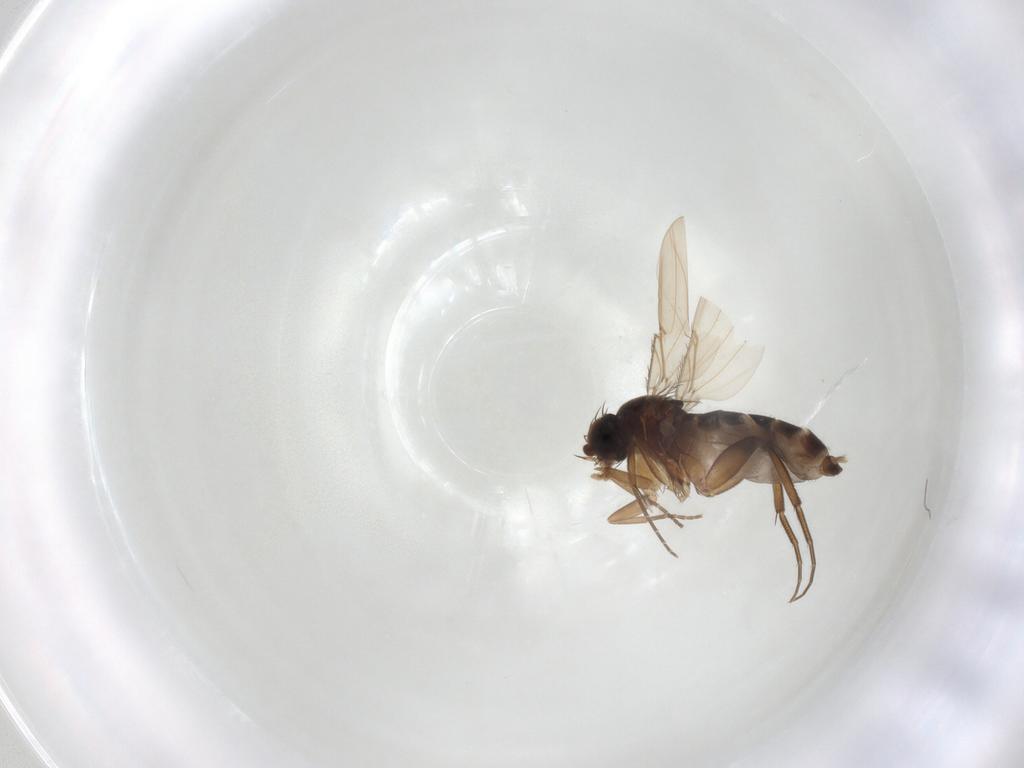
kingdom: Animalia
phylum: Arthropoda
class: Insecta
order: Diptera
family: Dolichopodidae
